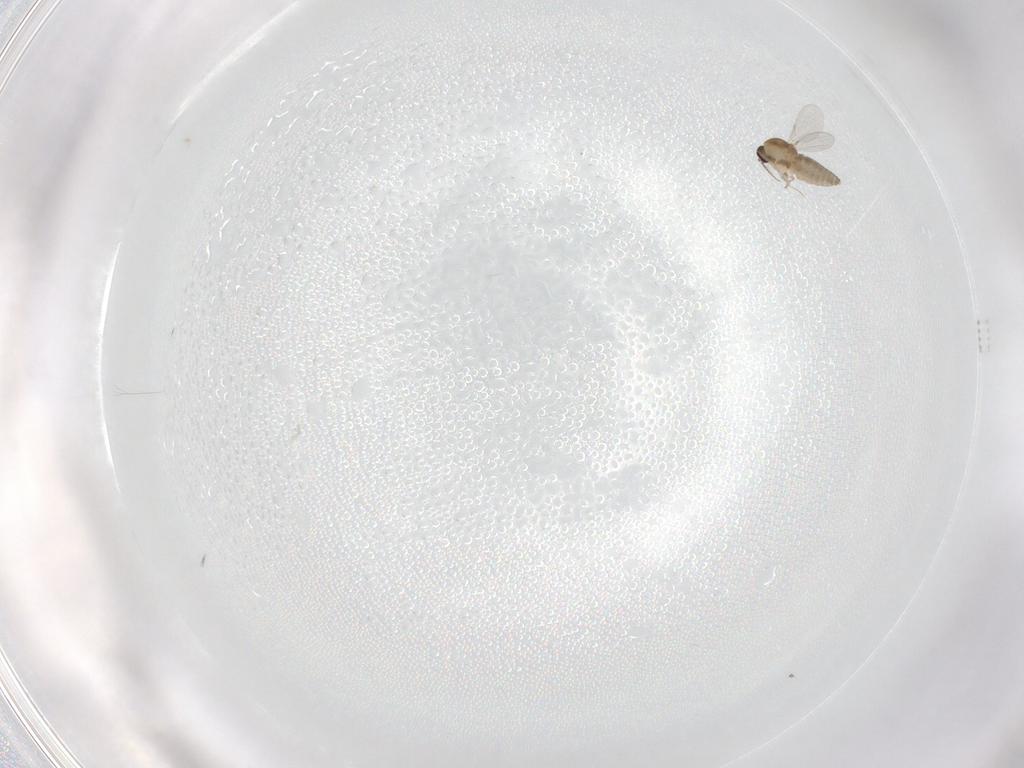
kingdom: Animalia
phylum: Arthropoda
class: Insecta
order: Diptera
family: Ceratopogonidae
